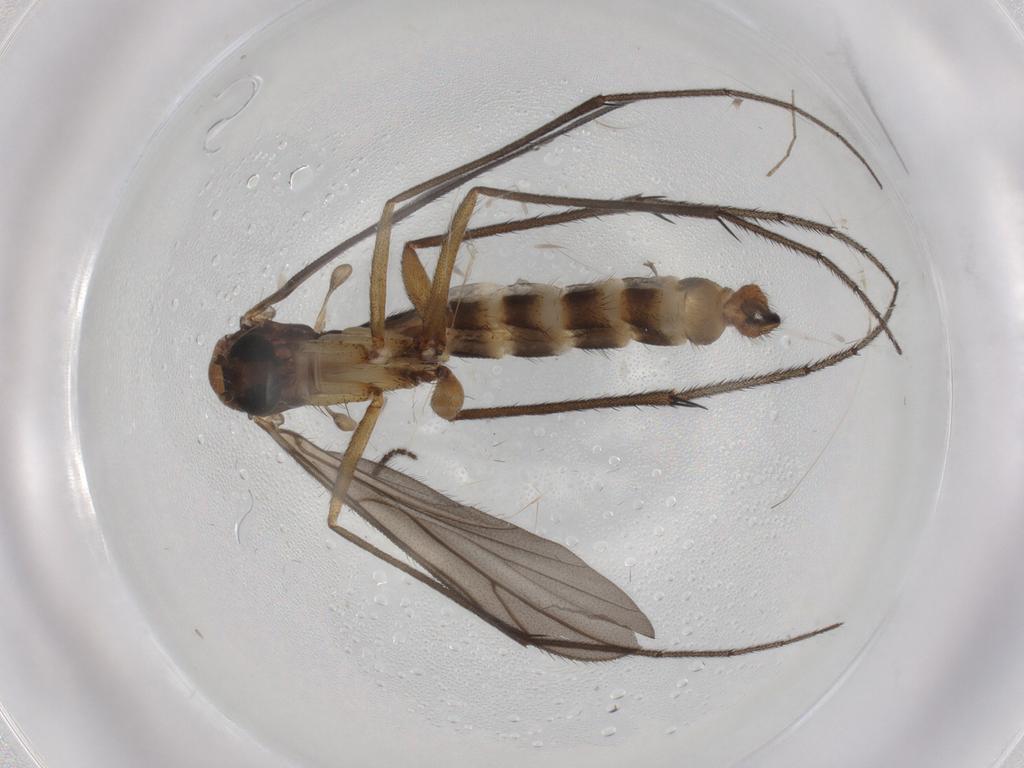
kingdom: Animalia
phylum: Arthropoda
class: Insecta
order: Diptera
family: Ditomyiidae
